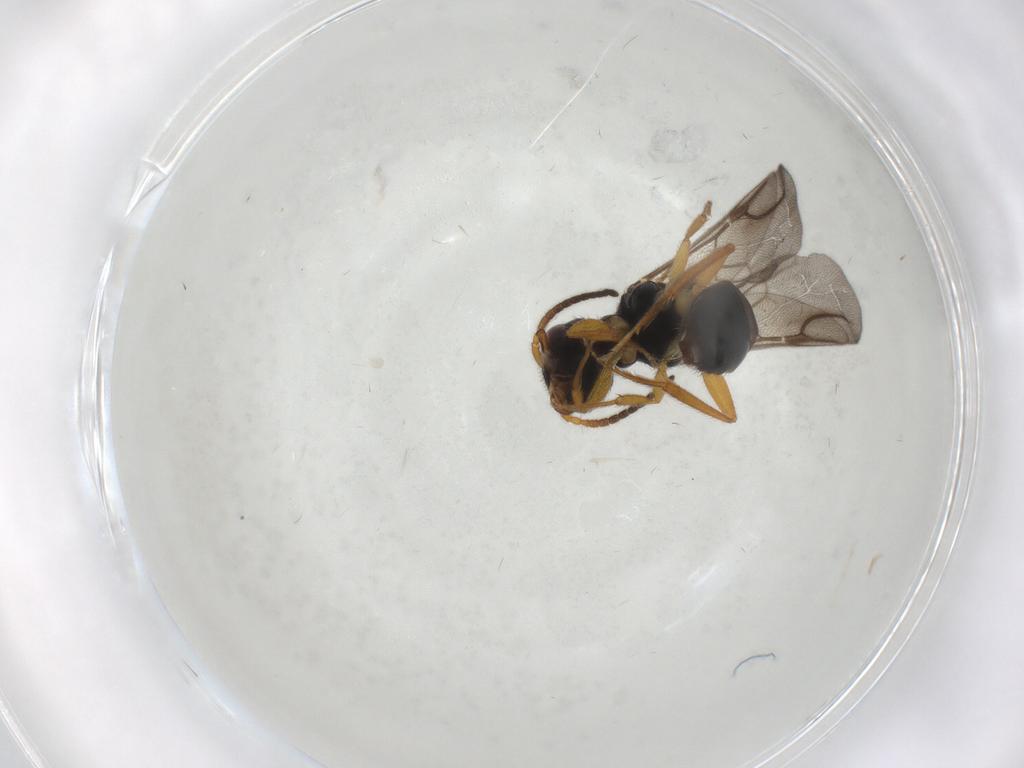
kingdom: Animalia
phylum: Arthropoda
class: Insecta
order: Hymenoptera
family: Bethylidae
